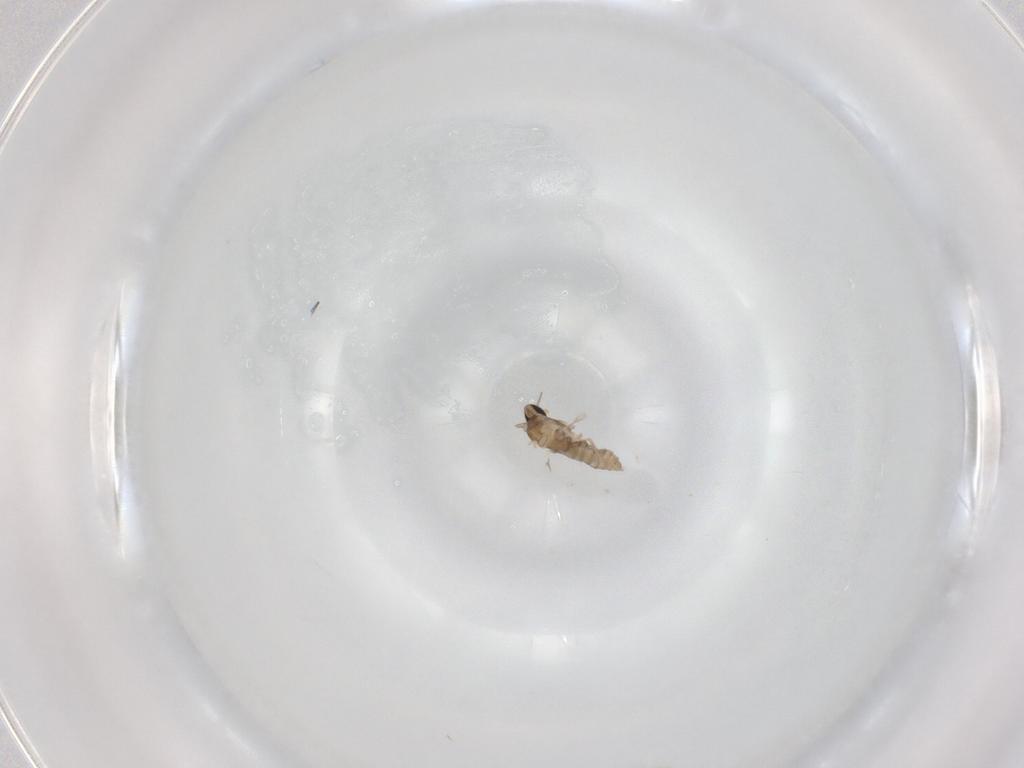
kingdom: Animalia
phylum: Arthropoda
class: Insecta
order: Diptera
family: Cecidomyiidae
